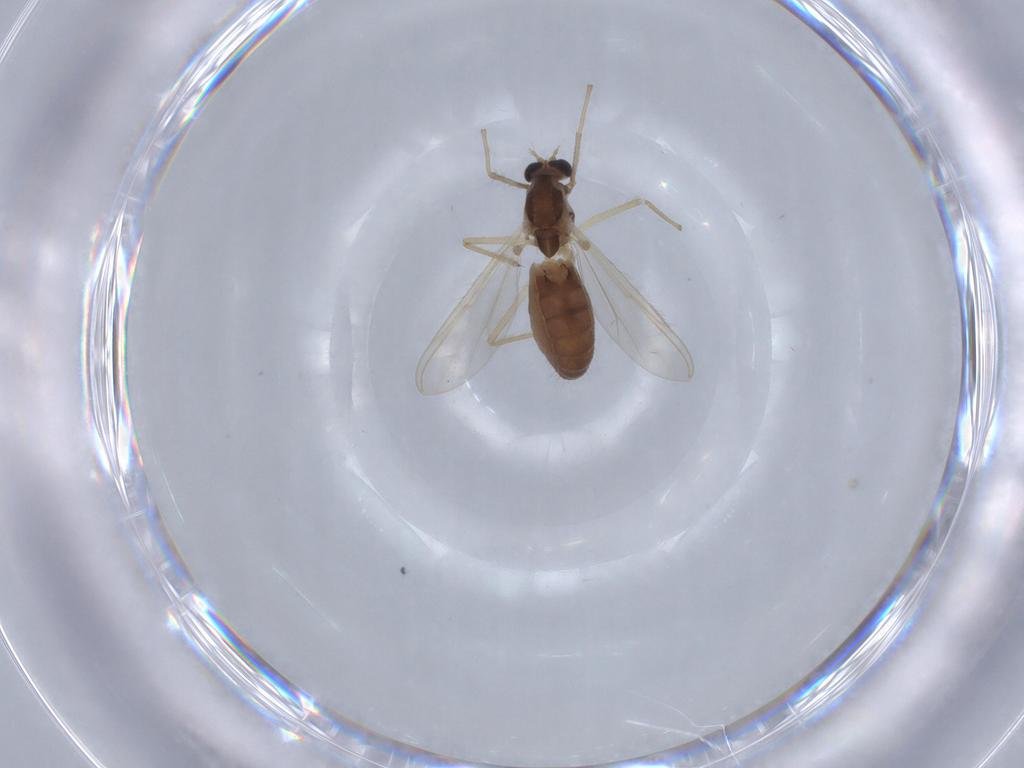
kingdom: Animalia
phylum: Arthropoda
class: Insecta
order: Diptera
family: Chironomidae
